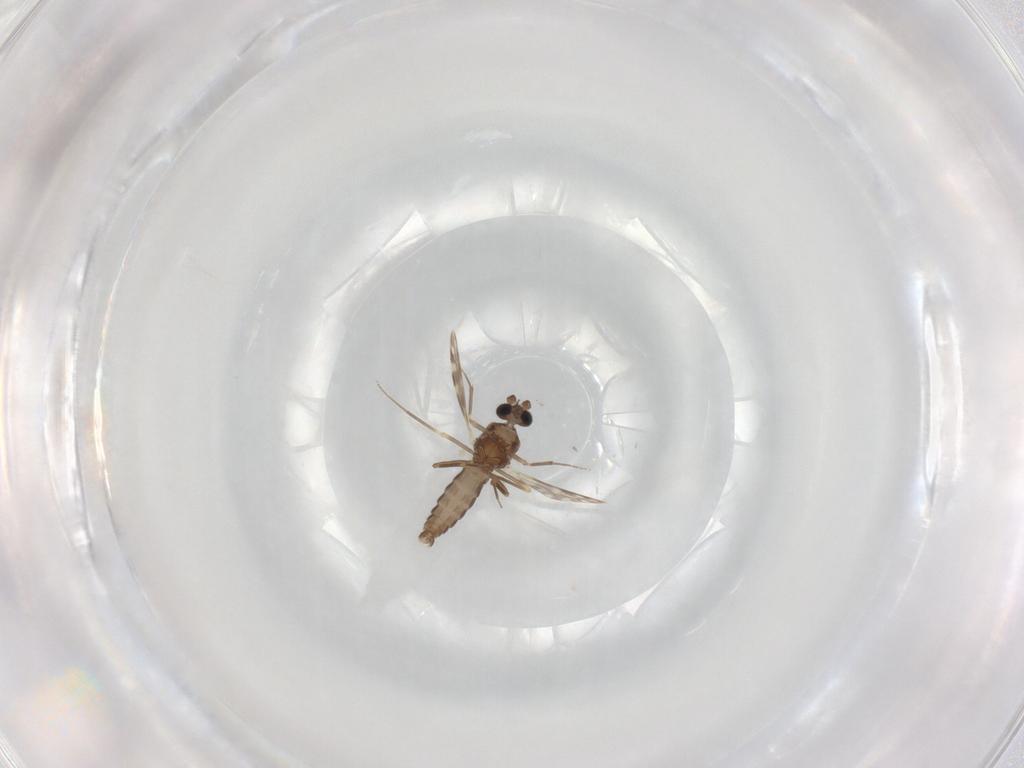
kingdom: Animalia
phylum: Arthropoda
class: Insecta
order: Diptera
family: Ceratopogonidae
